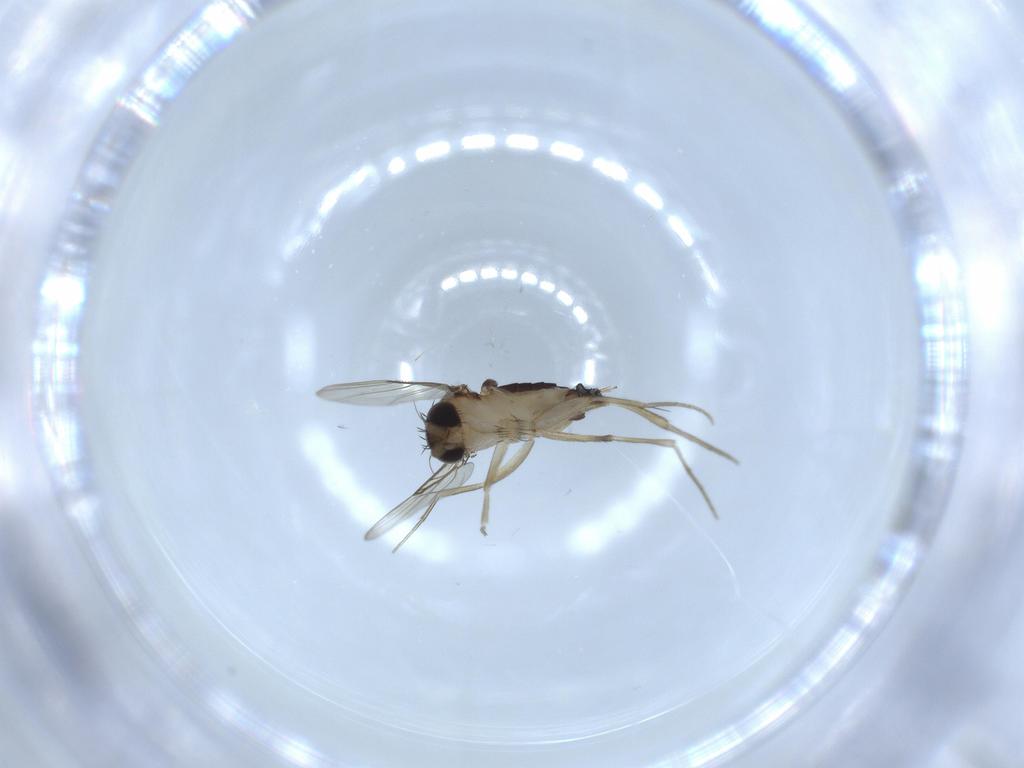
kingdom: Animalia
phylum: Arthropoda
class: Insecta
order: Diptera
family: Phoridae
